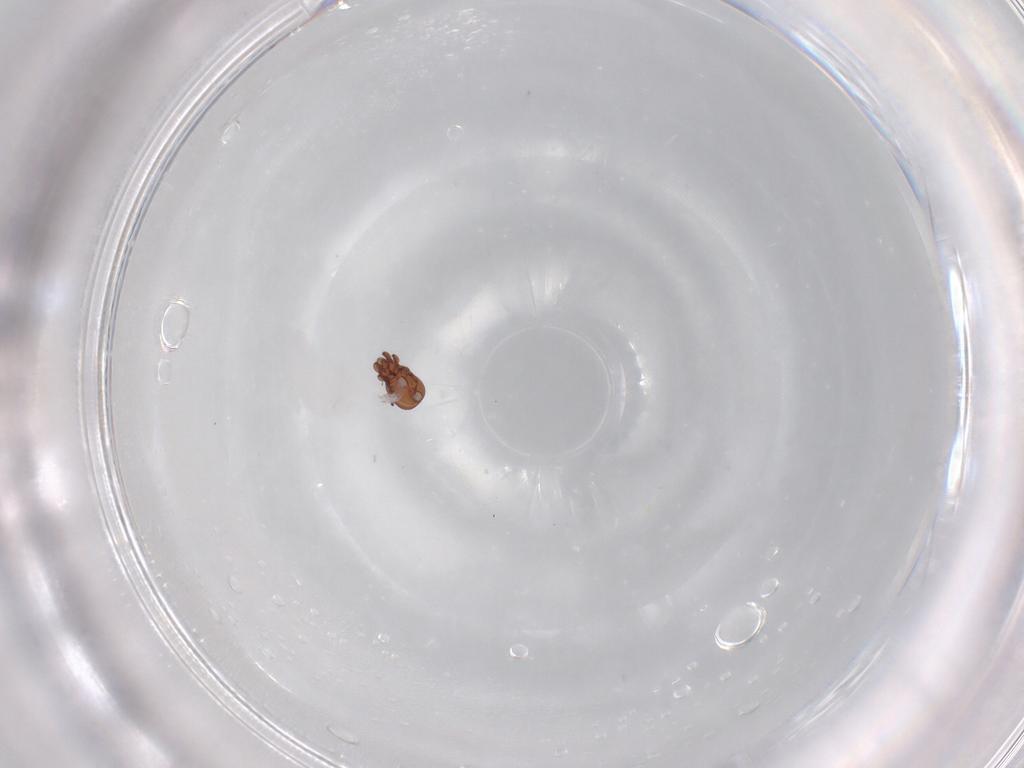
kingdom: Animalia
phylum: Arthropoda
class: Arachnida
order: Sarcoptiformes
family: Eremaeidae
